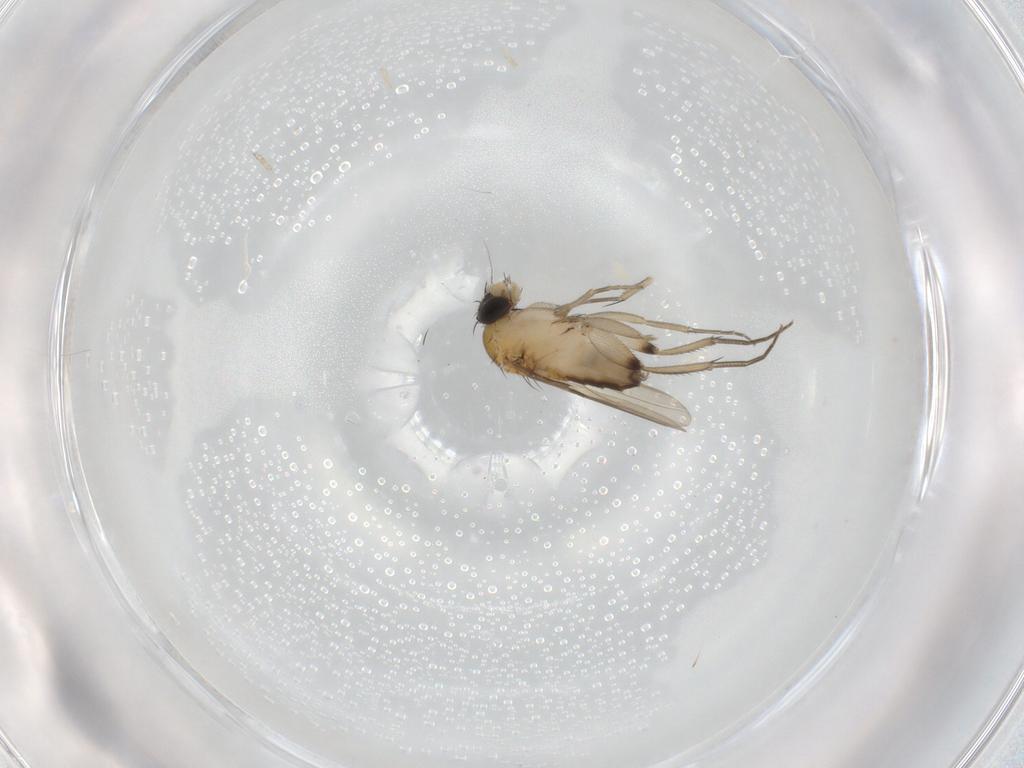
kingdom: Animalia
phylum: Arthropoda
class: Insecta
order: Diptera
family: Phoridae
